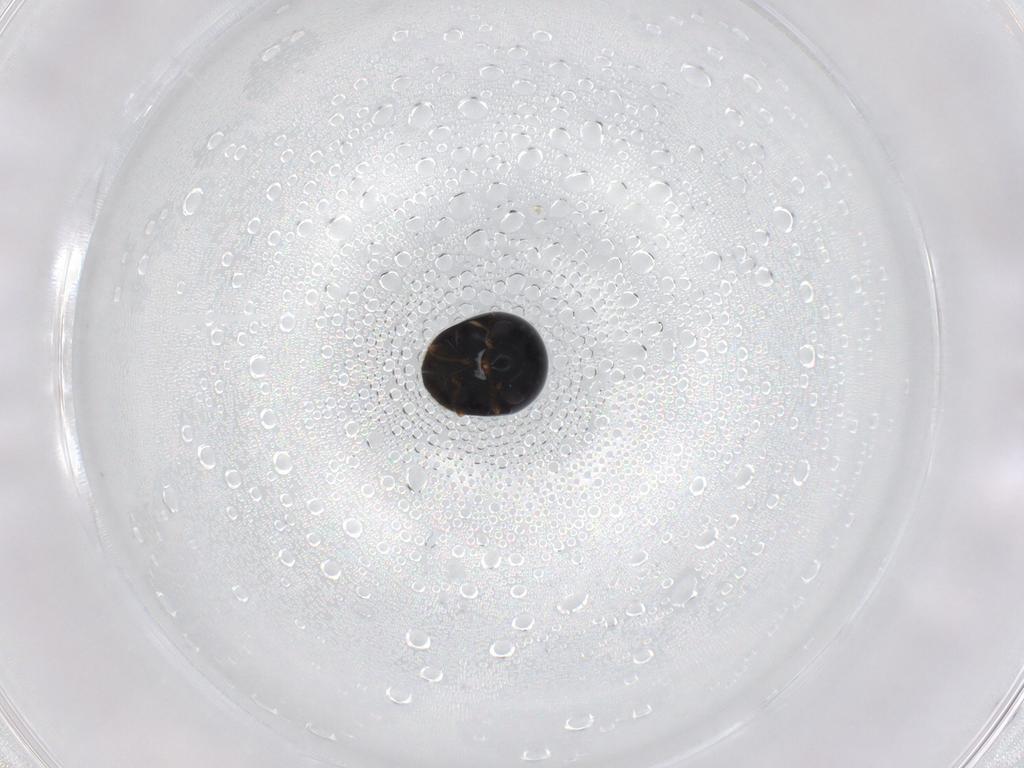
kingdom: Animalia
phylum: Arthropoda
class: Insecta
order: Coleoptera
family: Cybocephalidae
